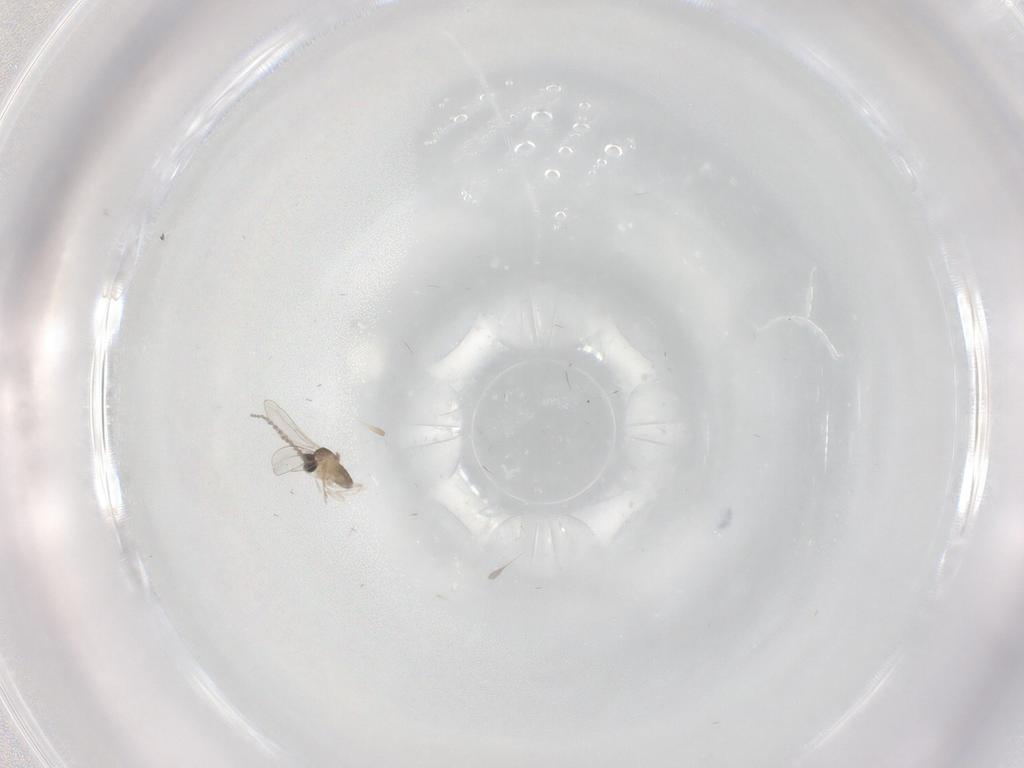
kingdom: Animalia
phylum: Arthropoda
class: Insecta
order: Diptera
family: Cecidomyiidae
